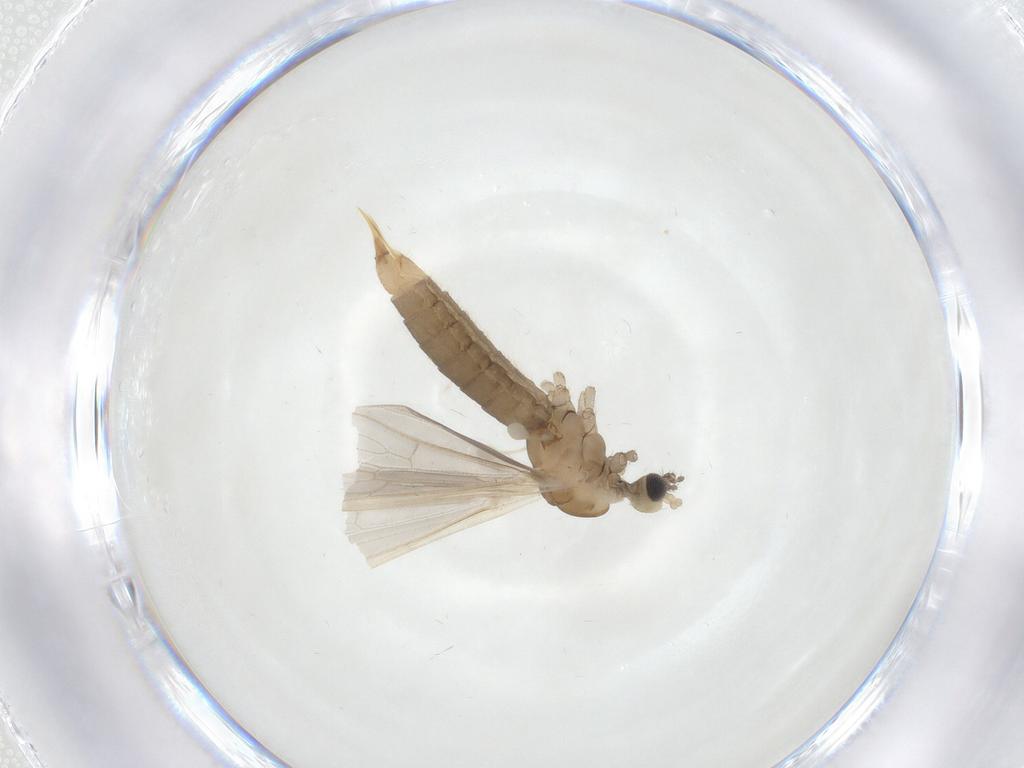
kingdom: Animalia
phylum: Arthropoda
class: Insecta
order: Diptera
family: Limoniidae
